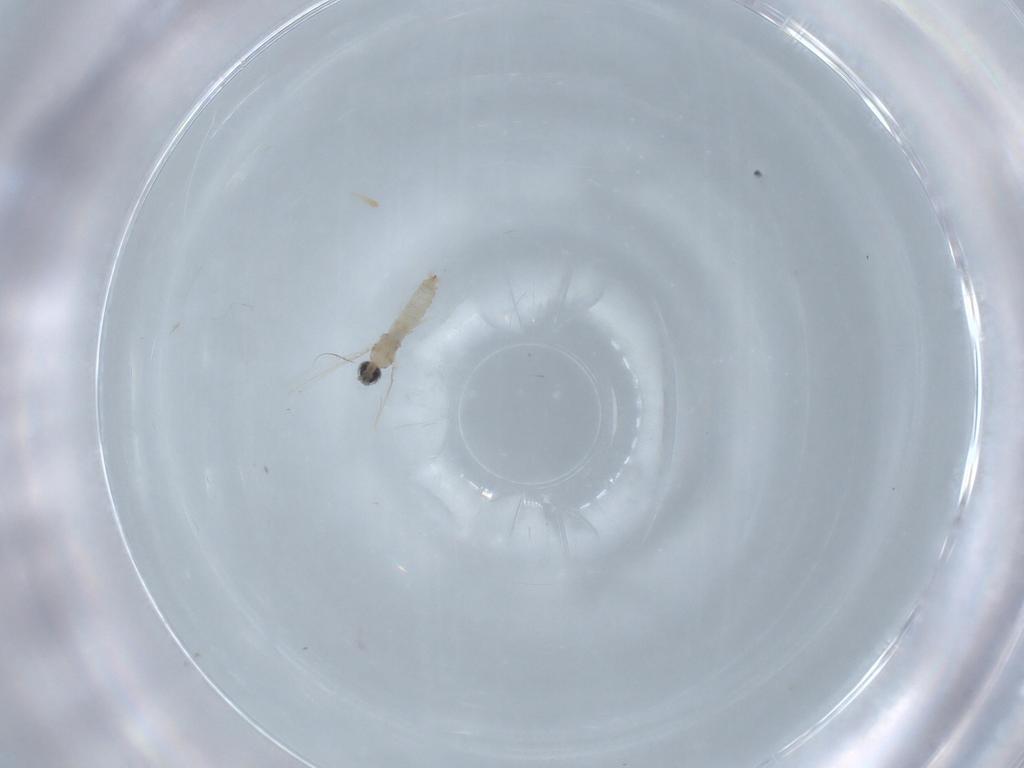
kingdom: Animalia
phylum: Arthropoda
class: Insecta
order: Diptera
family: Cecidomyiidae
